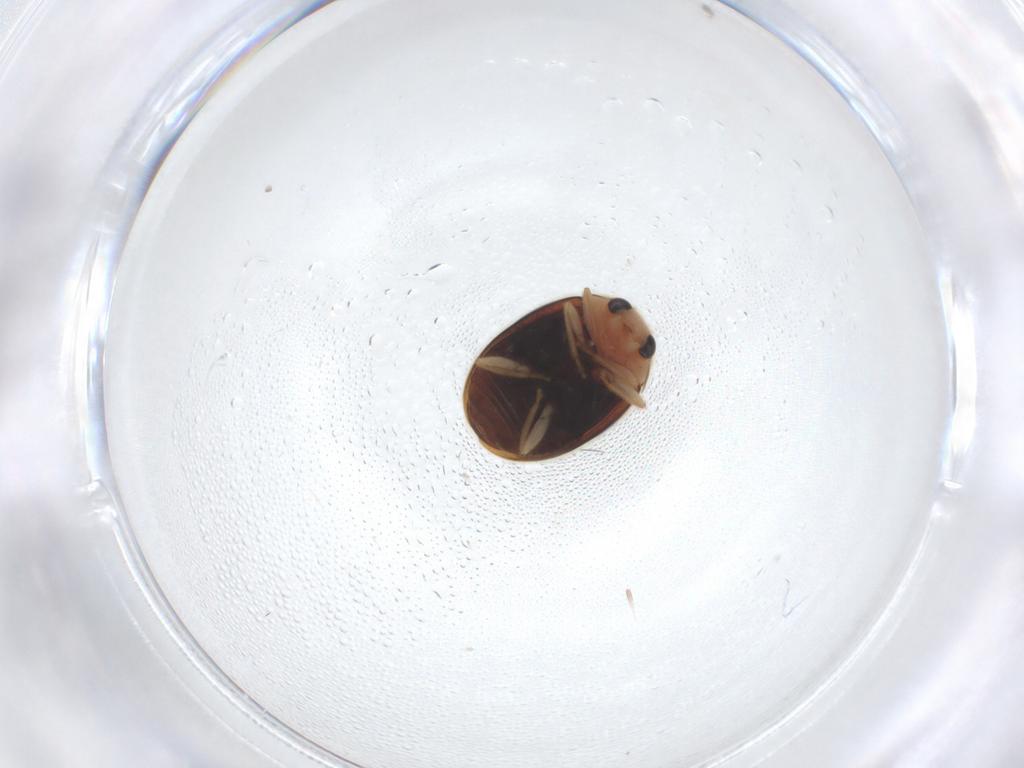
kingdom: Animalia
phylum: Arthropoda
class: Insecta
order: Coleoptera
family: Coccinellidae
